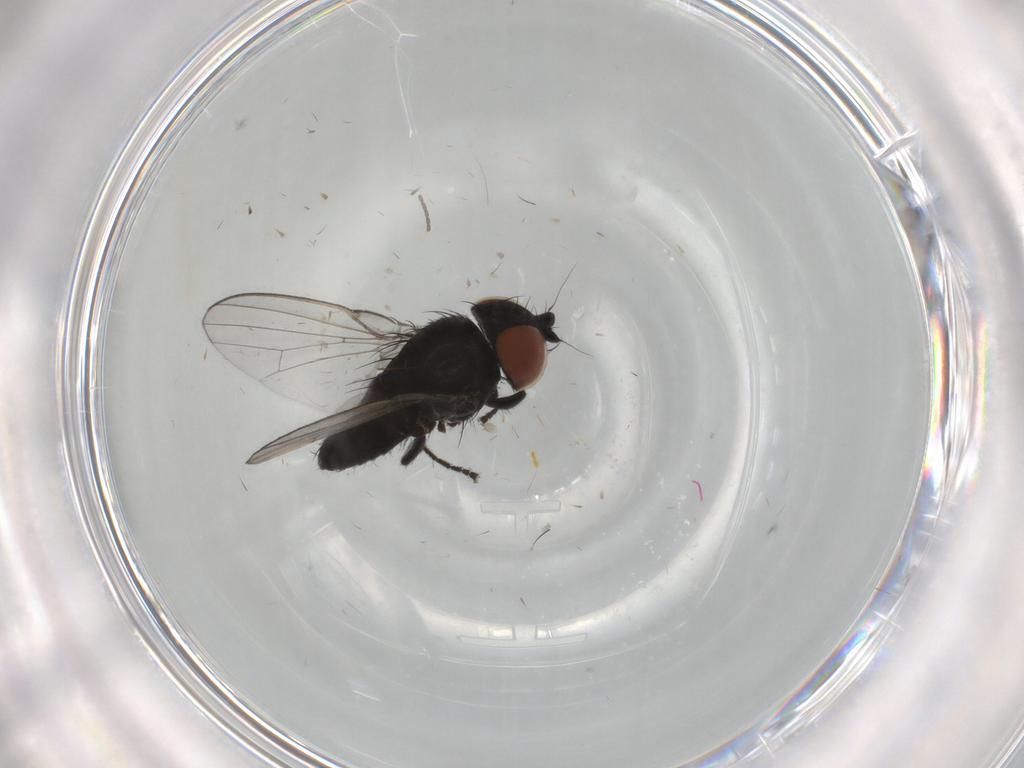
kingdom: Animalia
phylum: Arthropoda
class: Insecta
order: Diptera
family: Milichiidae
